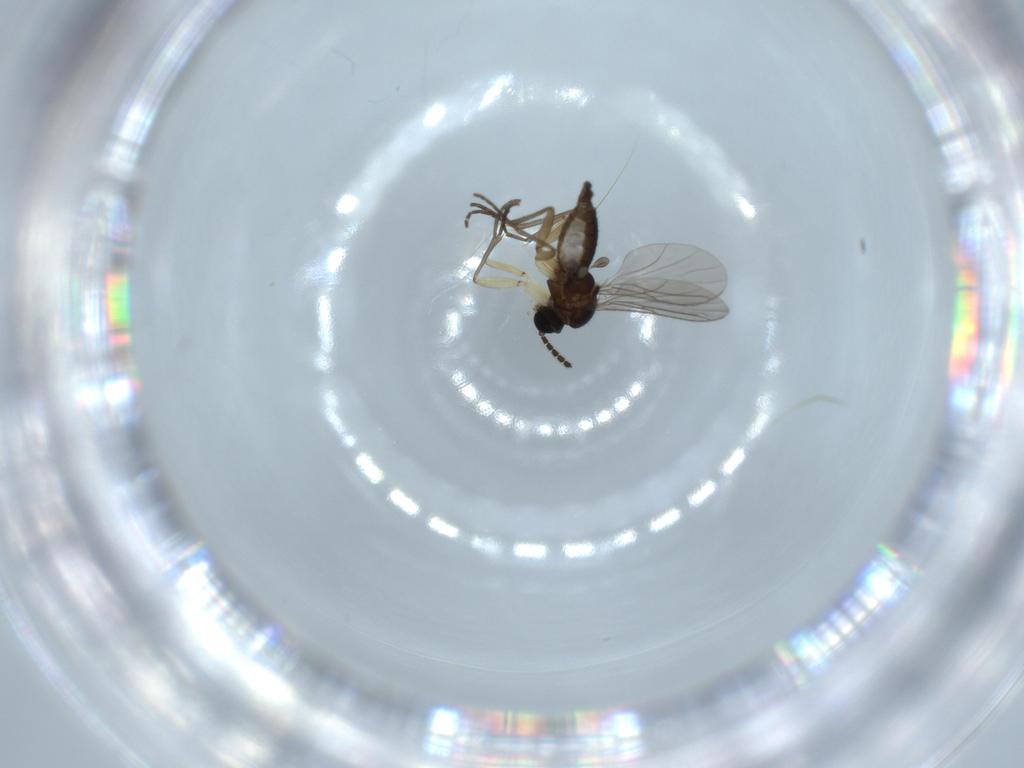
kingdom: Animalia
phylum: Arthropoda
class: Insecta
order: Diptera
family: Sciaridae
